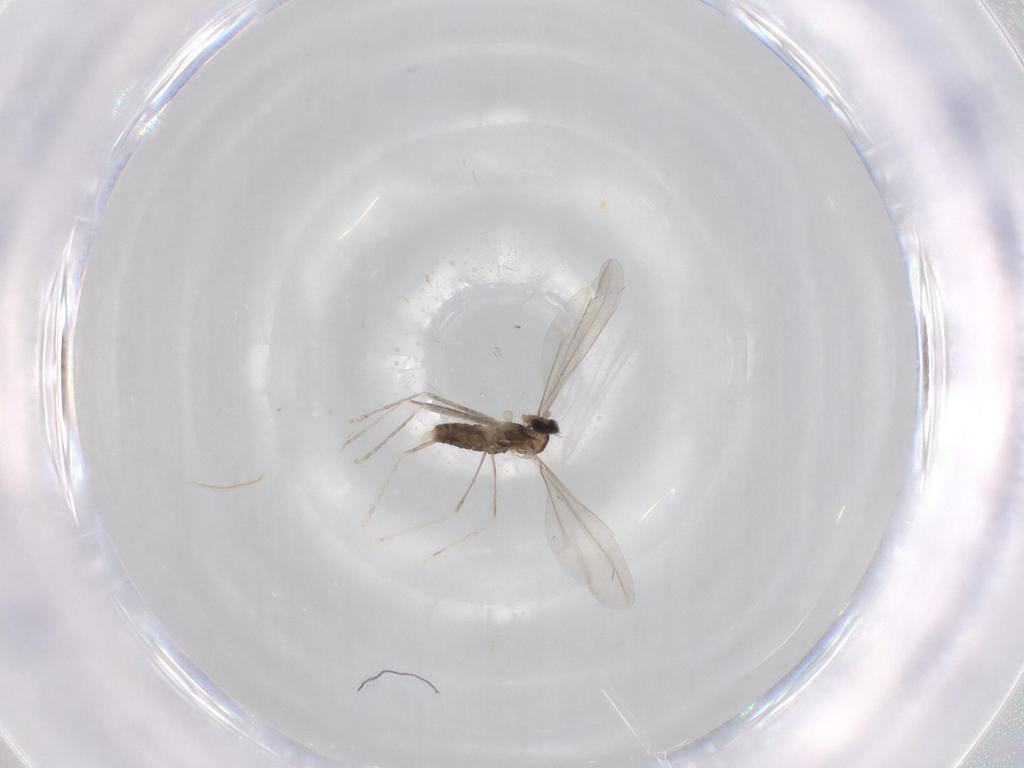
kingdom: Animalia
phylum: Arthropoda
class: Insecta
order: Diptera
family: Cecidomyiidae
